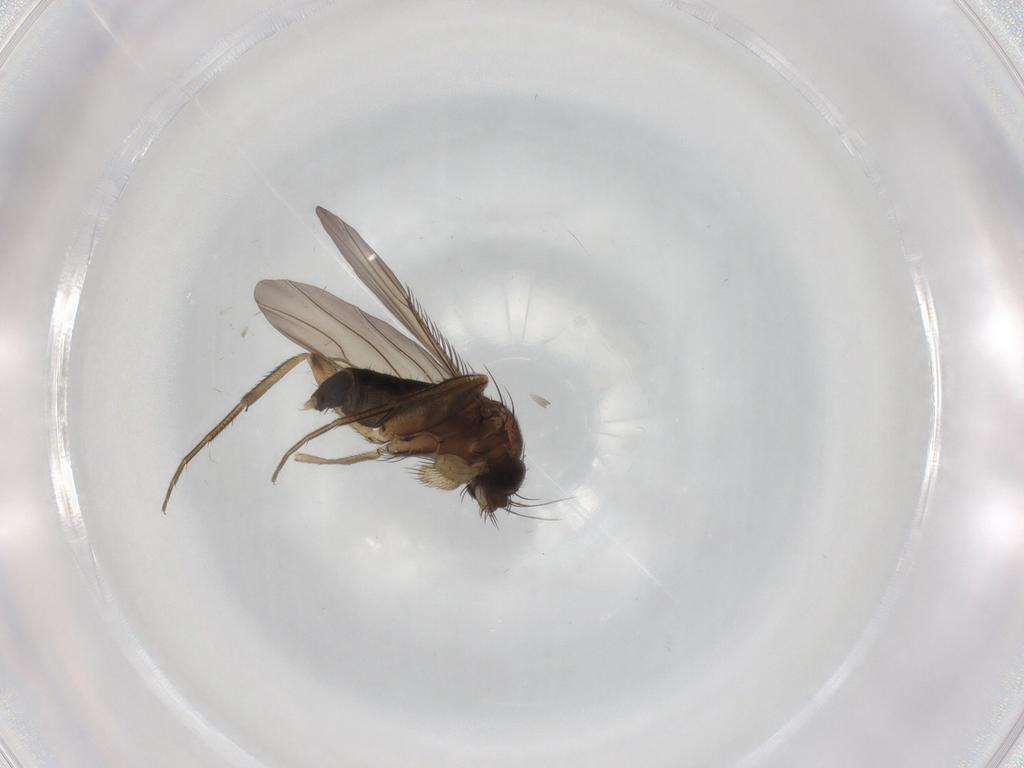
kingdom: Animalia
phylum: Arthropoda
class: Insecta
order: Diptera
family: Phoridae
